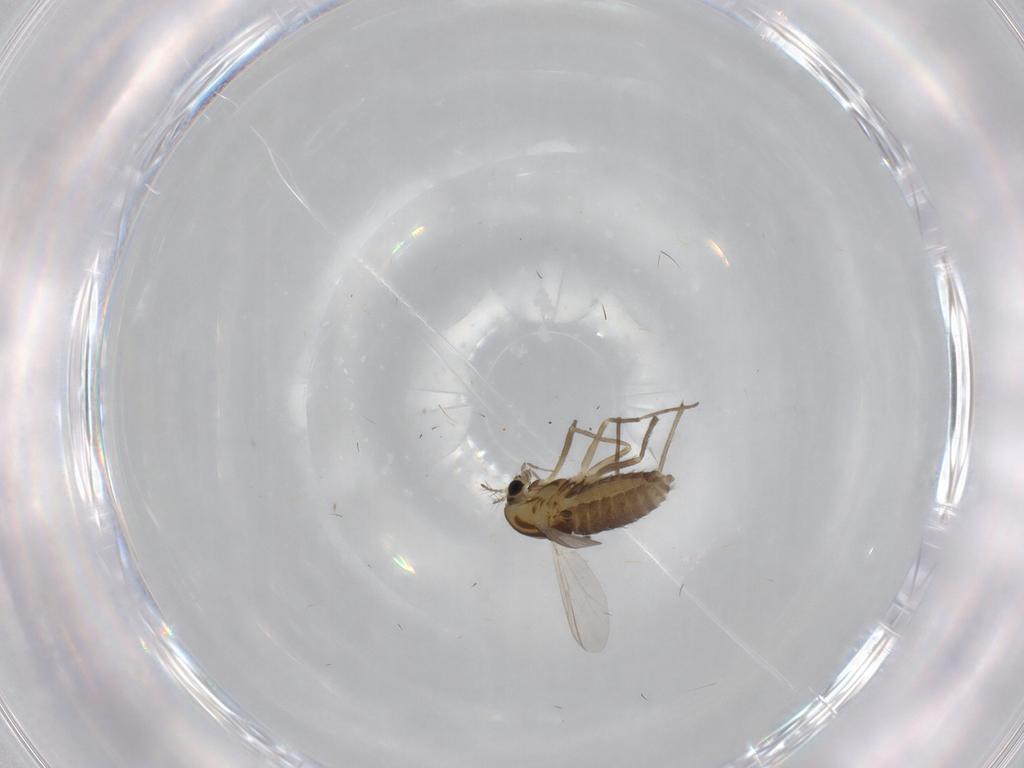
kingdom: Animalia
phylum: Arthropoda
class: Insecta
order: Diptera
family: Chironomidae
